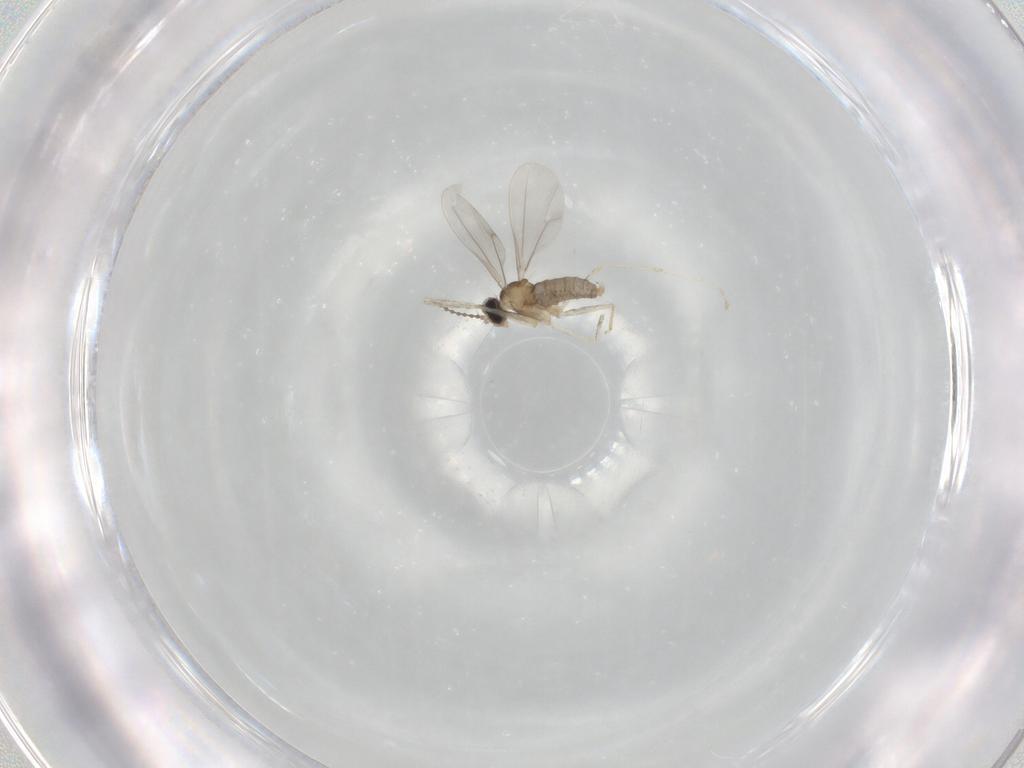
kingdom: Animalia
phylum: Arthropoda
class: Insecta
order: Diptera
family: Cecidomyiidae
